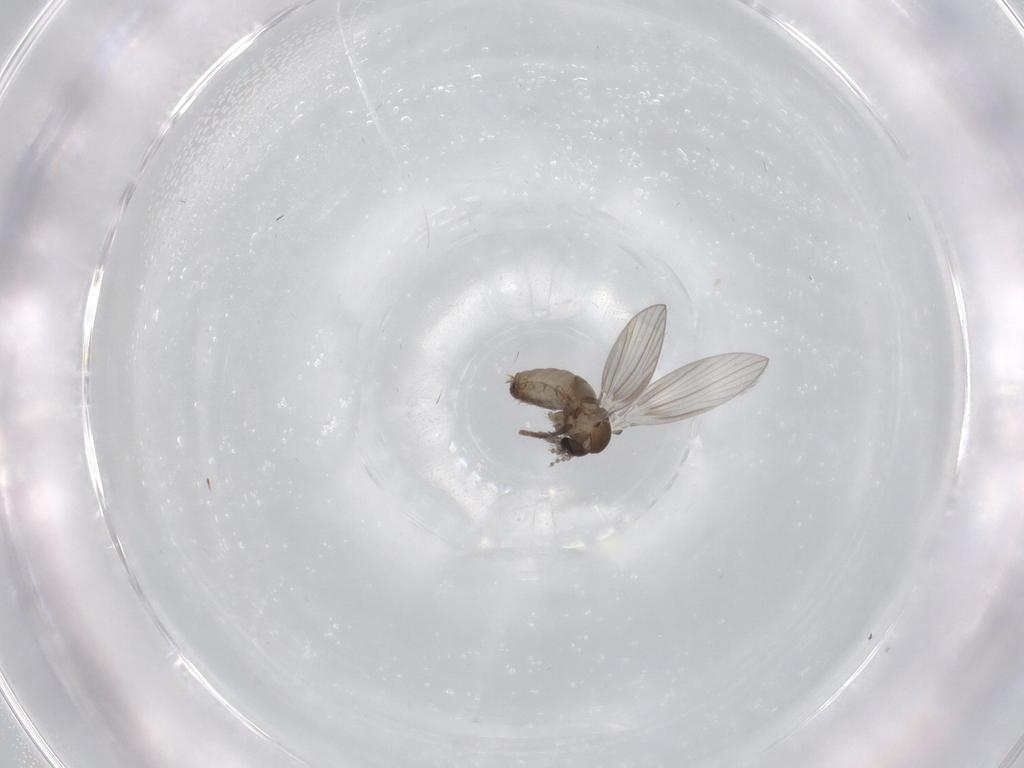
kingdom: Animalia
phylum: Arthropoda
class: Insecta
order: Diptera
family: Psychodidae
